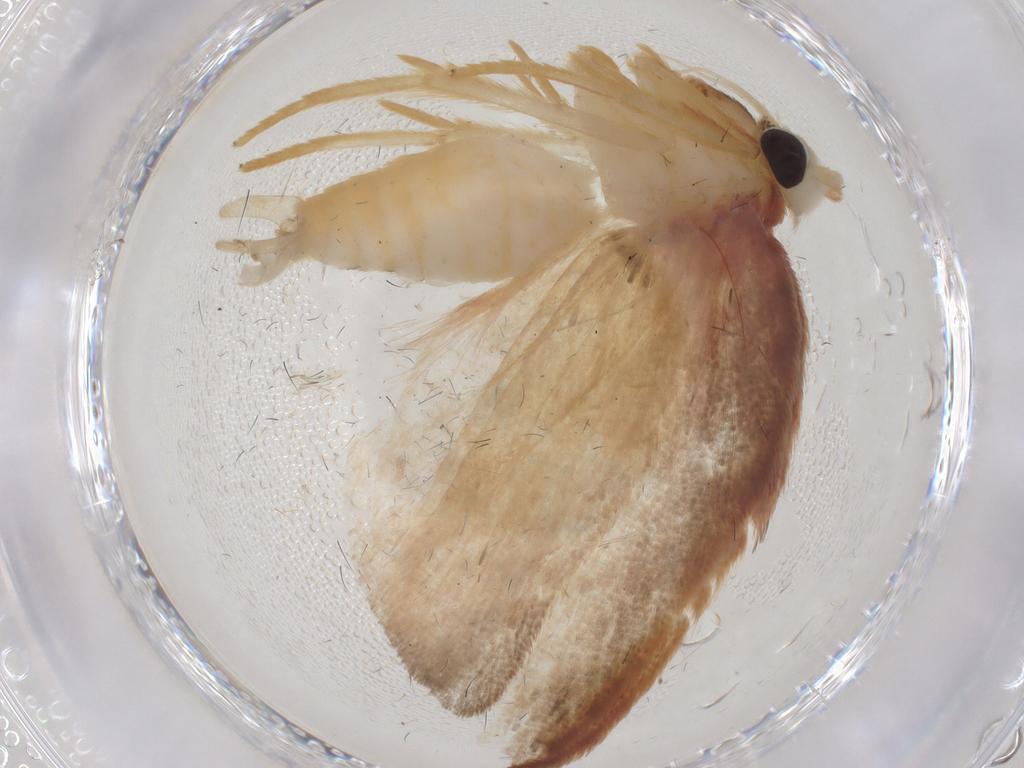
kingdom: Animalia
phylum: Arthropoda
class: Insecta
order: Lepidoptera
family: Depressariidae
